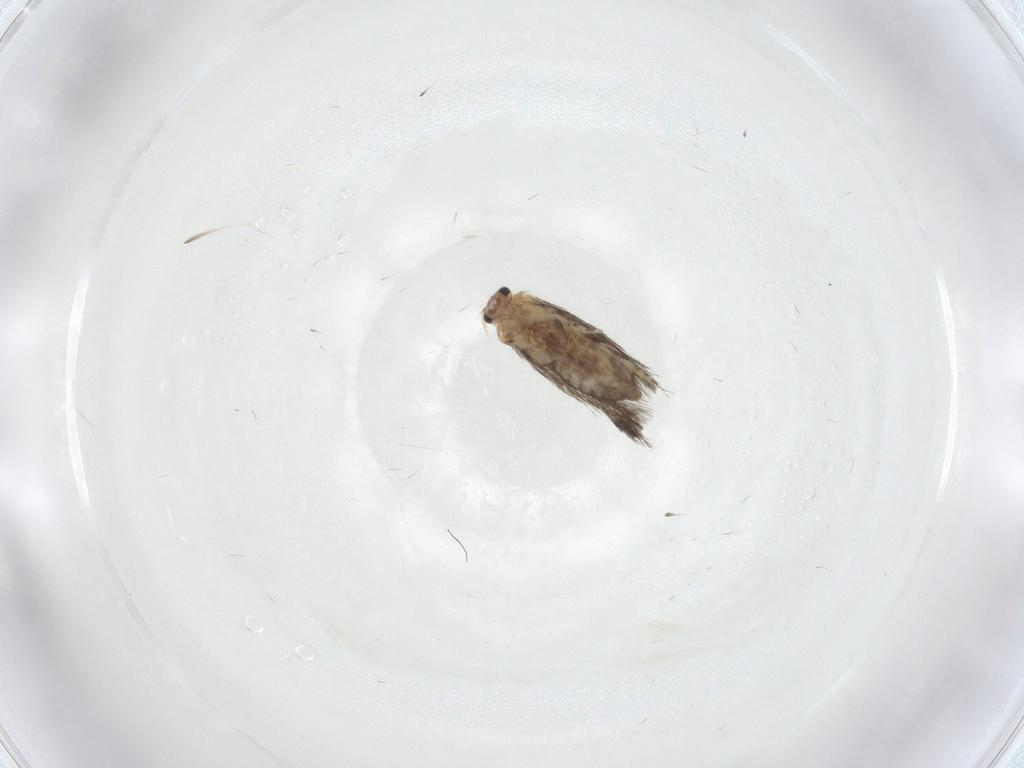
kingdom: Animalia
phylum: Arthropoda
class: Insecta
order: Lepidoptera
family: Nepticulidae
